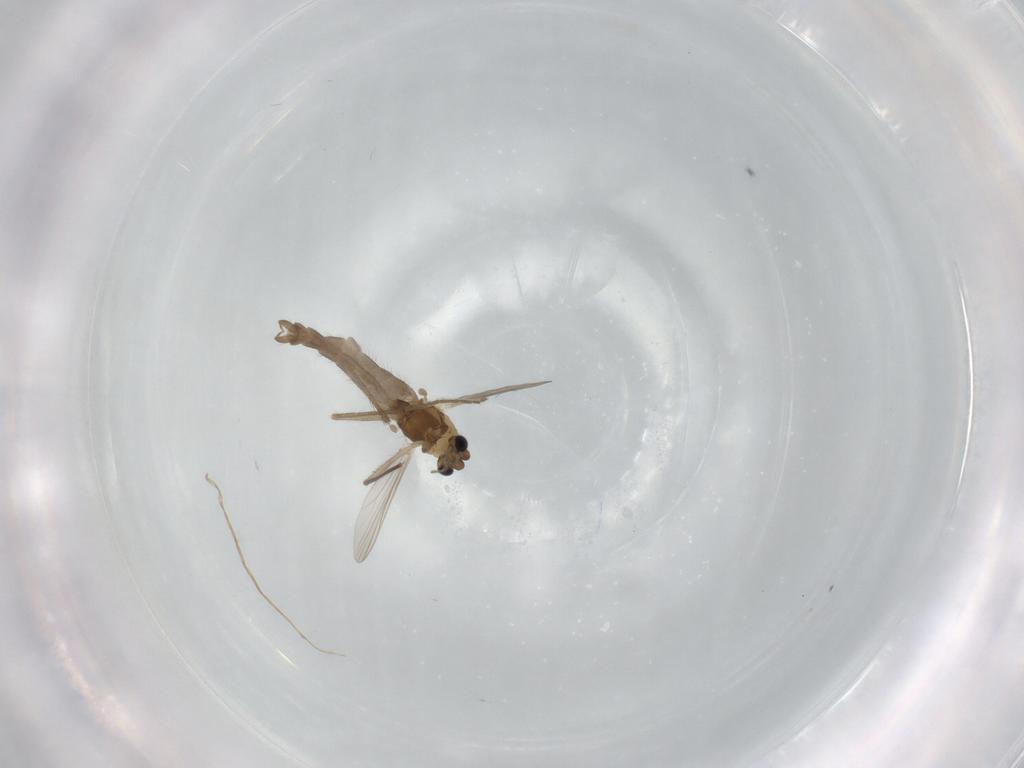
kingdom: Animalia
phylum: Arthropoda
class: Insecta
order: Diptera
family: Chironomidae
